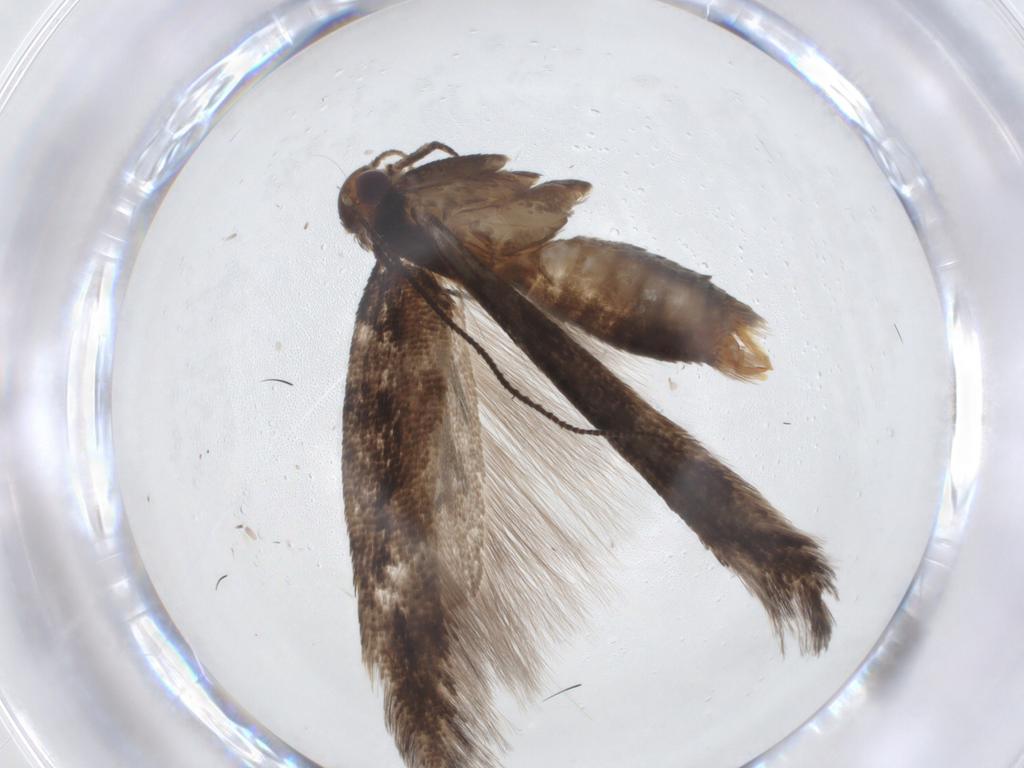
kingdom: Animalia
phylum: Arthropoda
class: Insecta
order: Lepidoptera
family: Gelechiidae
